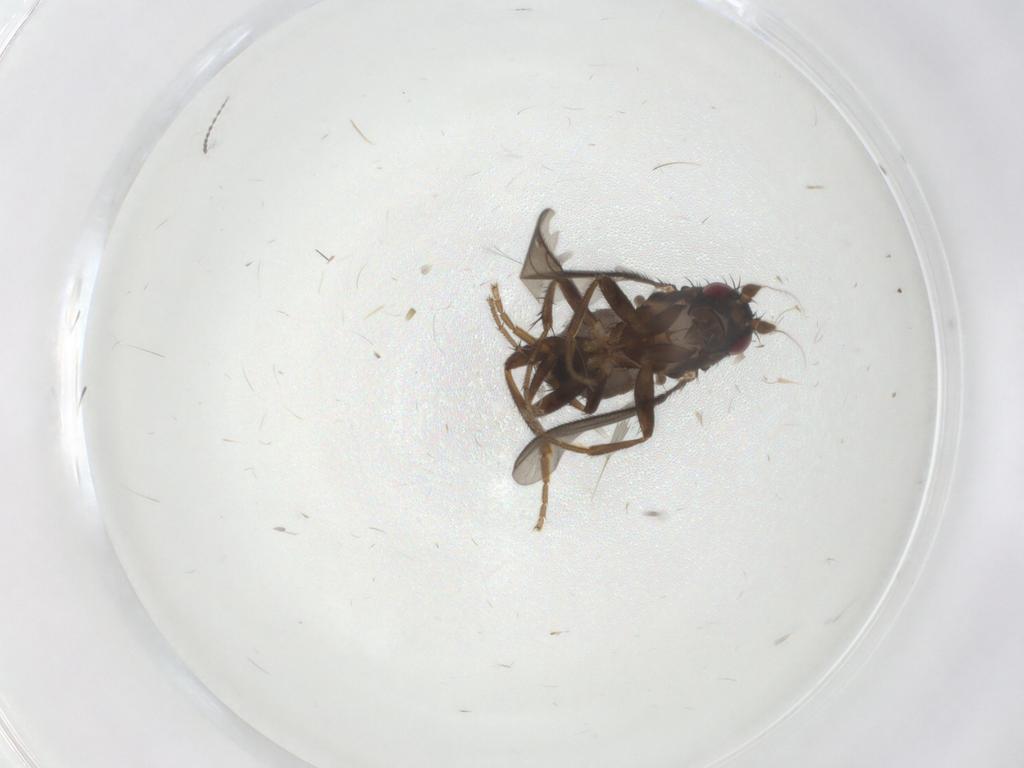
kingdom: Animalia
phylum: Arthropoda
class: Insecta
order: Diptera
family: Sphaeroceridae
